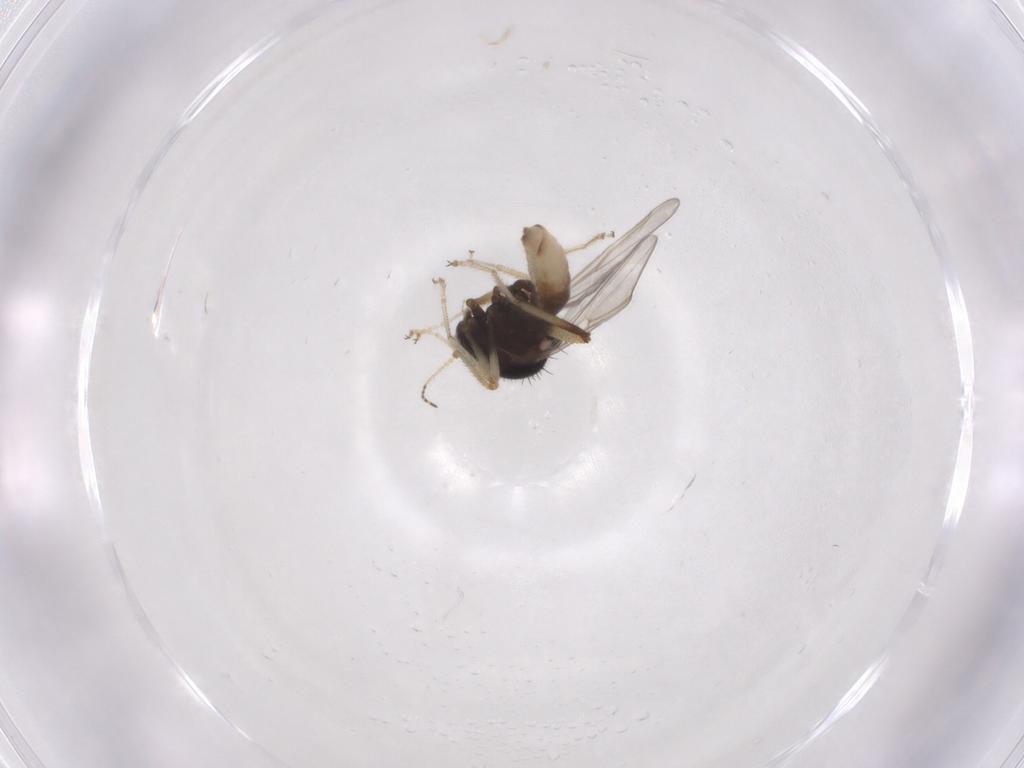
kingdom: Animalia
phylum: Arthropoda
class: Insecta
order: Diptera
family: Ceratopogonidae
